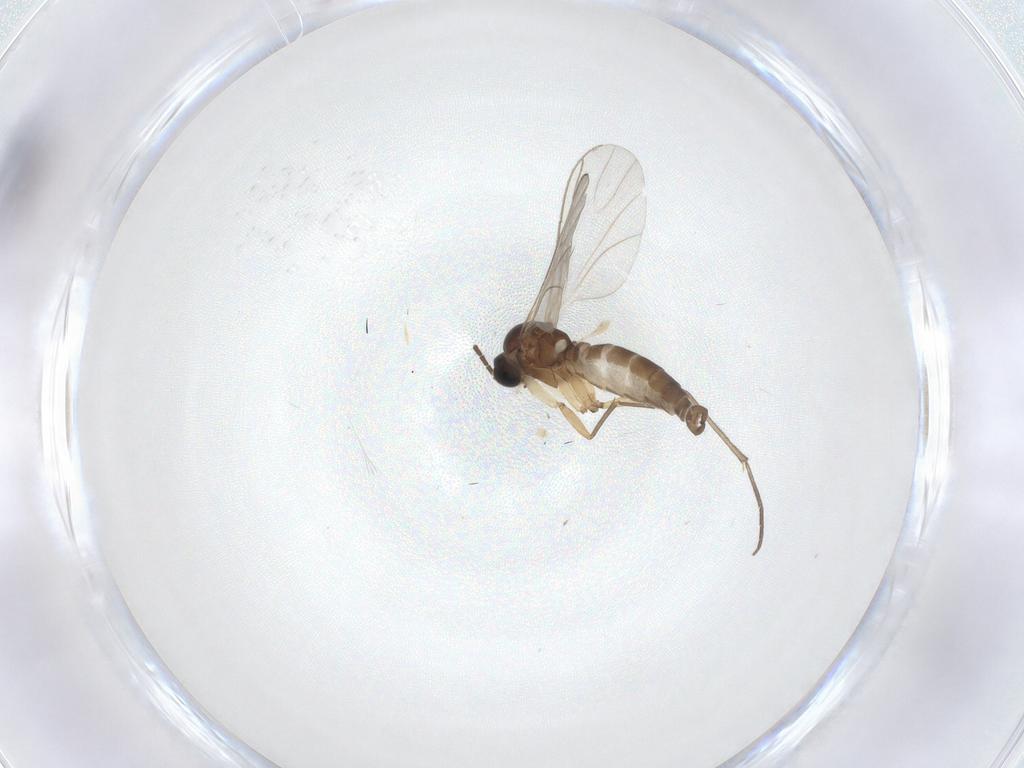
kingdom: Animalia
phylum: Arthropoda
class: Insecta
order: Diptera
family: Sciaridae
